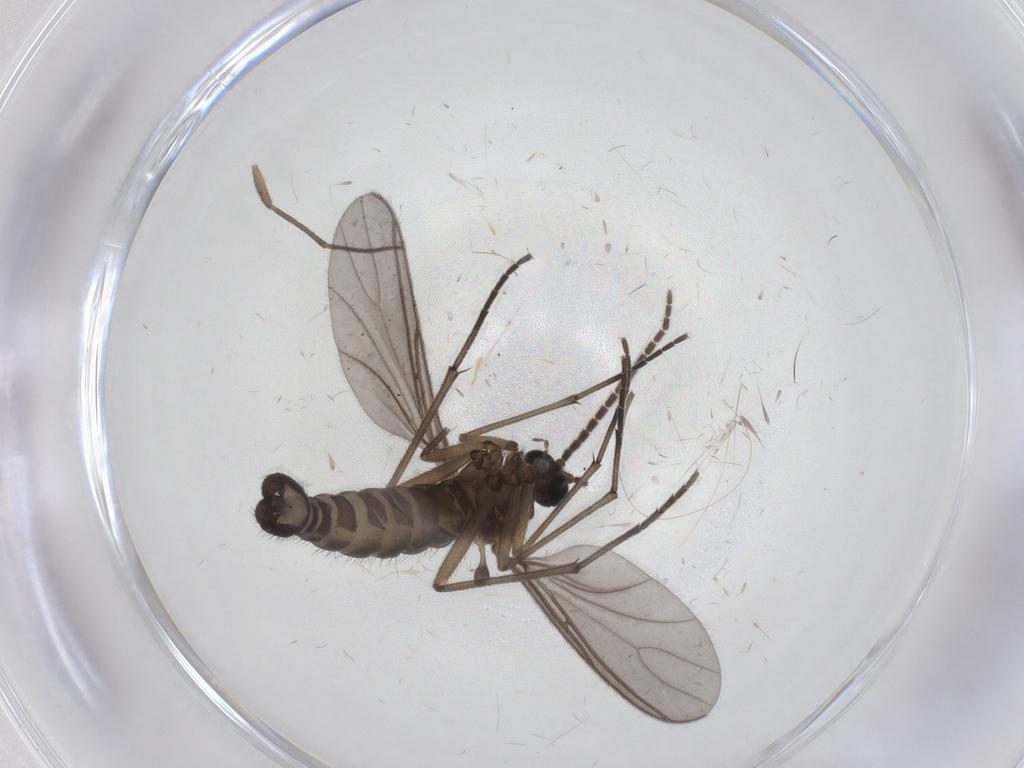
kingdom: Animalia
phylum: Arthropoda
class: Insecta
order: Diptera
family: Sciaridae
